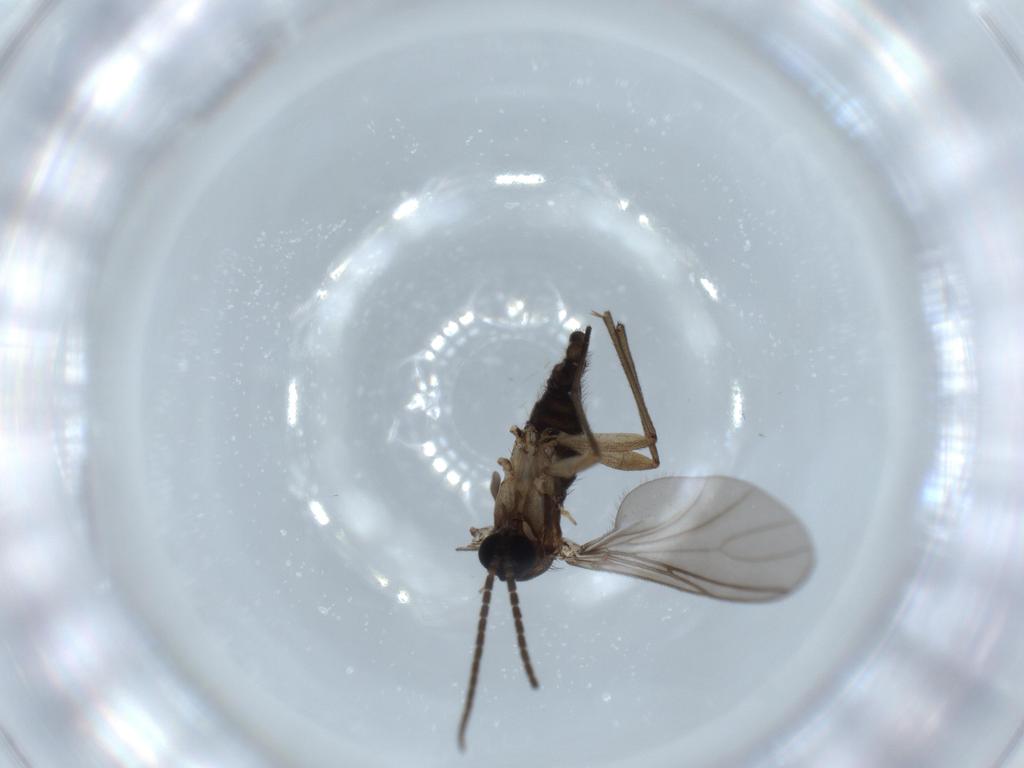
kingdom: Animalia
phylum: Arthropoda
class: Insecta
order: Diptera
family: Sciaridae
